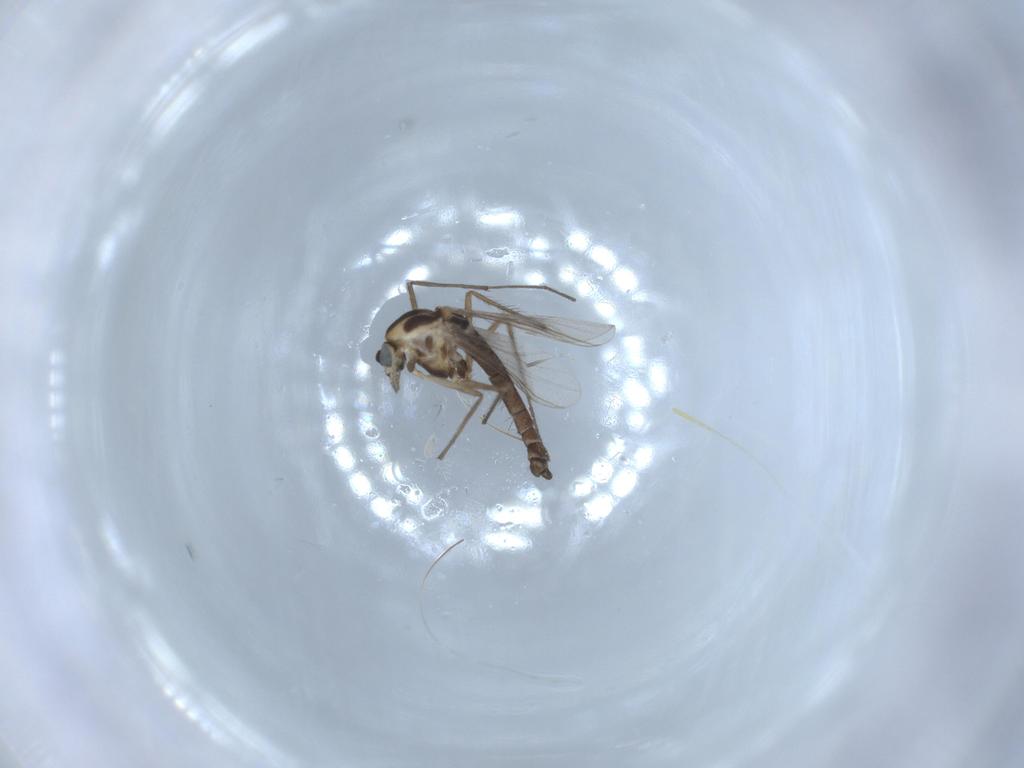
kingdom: Animalia
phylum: Arthropoda
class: Insecta
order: Diptera
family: Chironomidae
